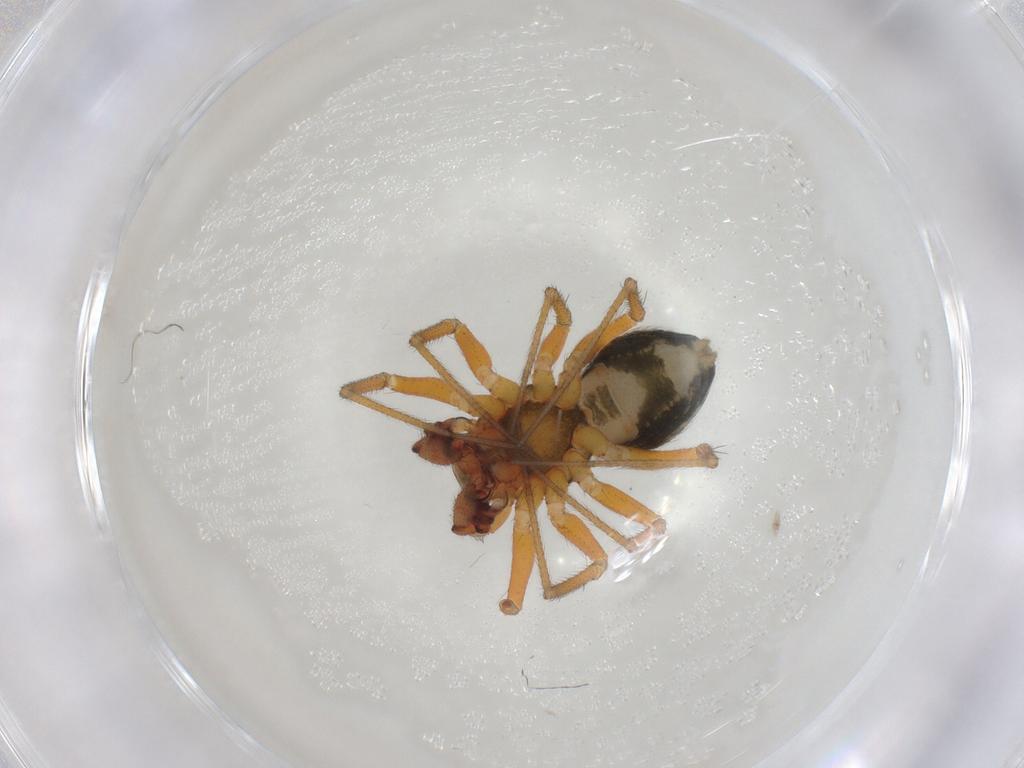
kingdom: Animalia
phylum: Arthropoda
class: Arachnida
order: Araneae
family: Linyphiidae
